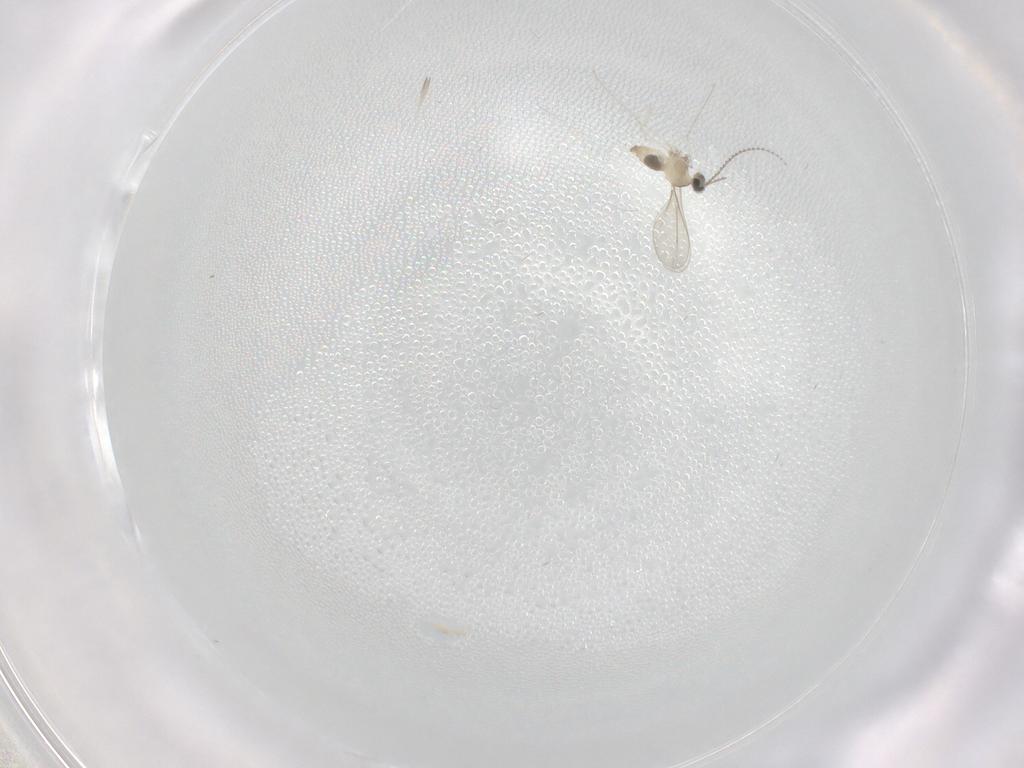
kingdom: Animalia
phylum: Arthropoda
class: Insecta
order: Diptera
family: Cecidomyiidae
